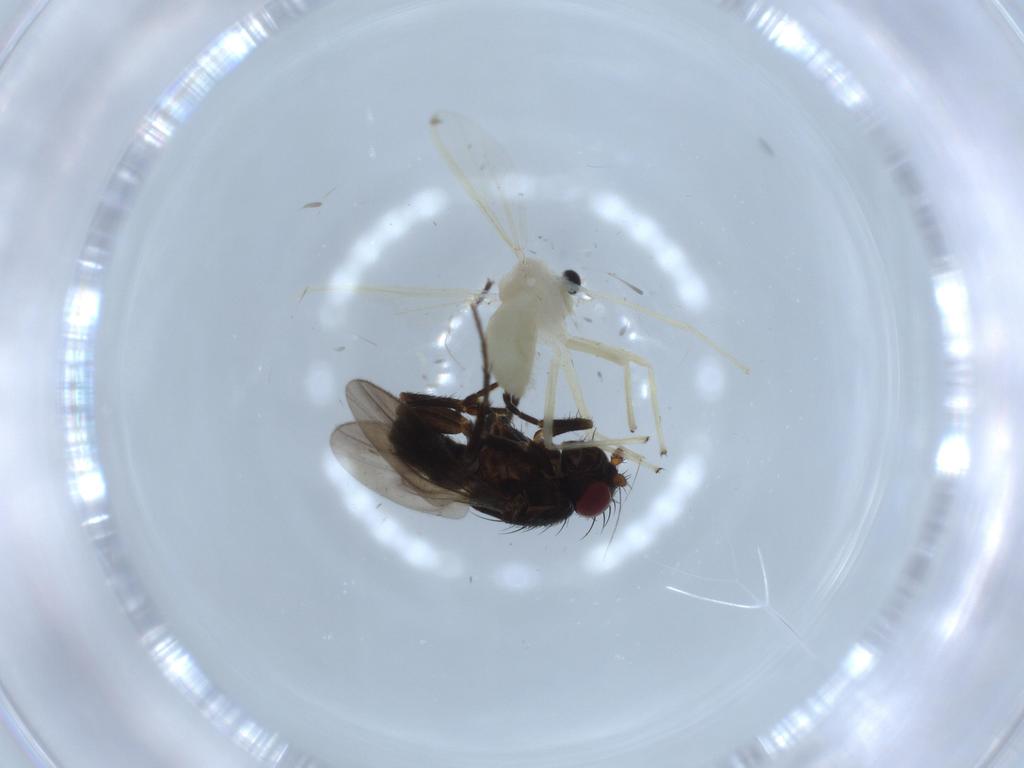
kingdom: Animalia
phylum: Arthropoda
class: Insecta
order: Diptera
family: Chironomidae
